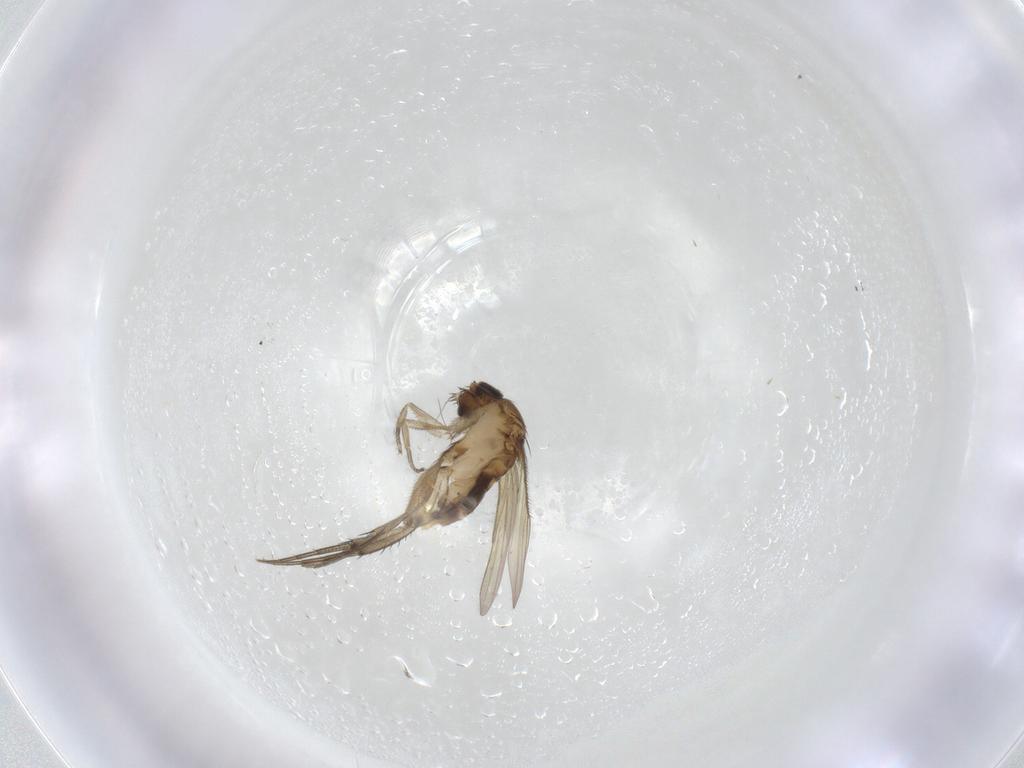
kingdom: Animalia
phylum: Arthropoda
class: Insecta
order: Diptera
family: Phoridae
